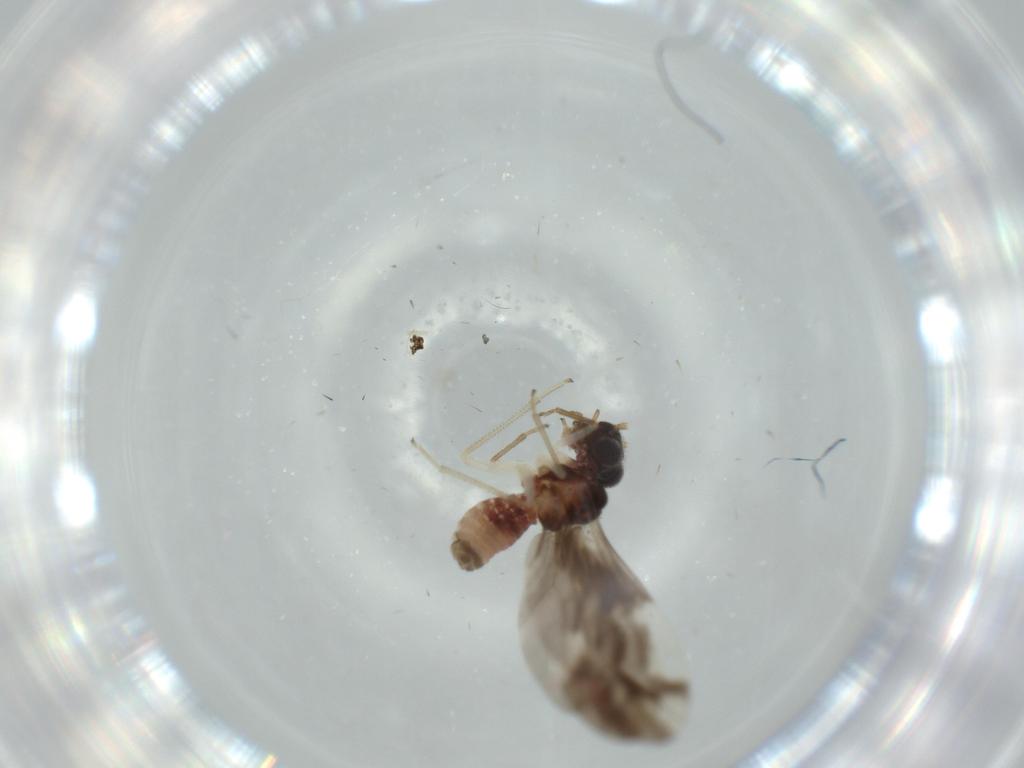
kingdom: Animalia
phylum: Arthropoda
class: Insecta
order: Psocodea
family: Caeciliusidae
